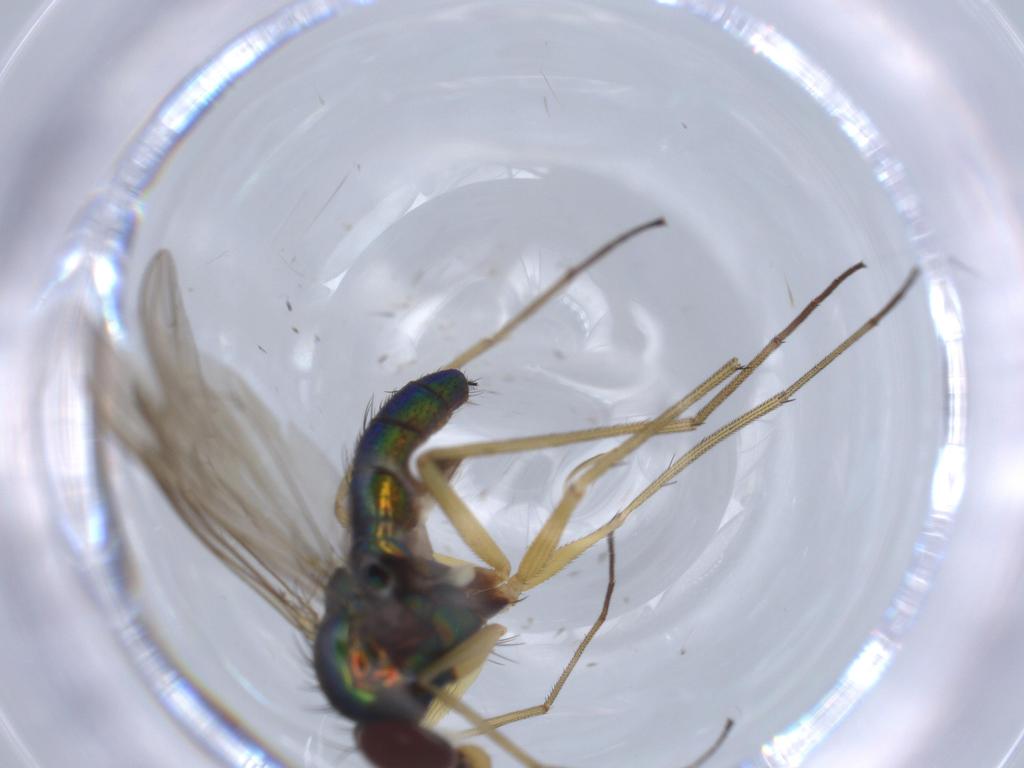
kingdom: Animalia
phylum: Arthropoda
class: Insecta
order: Diptera
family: Dolichopodidae
